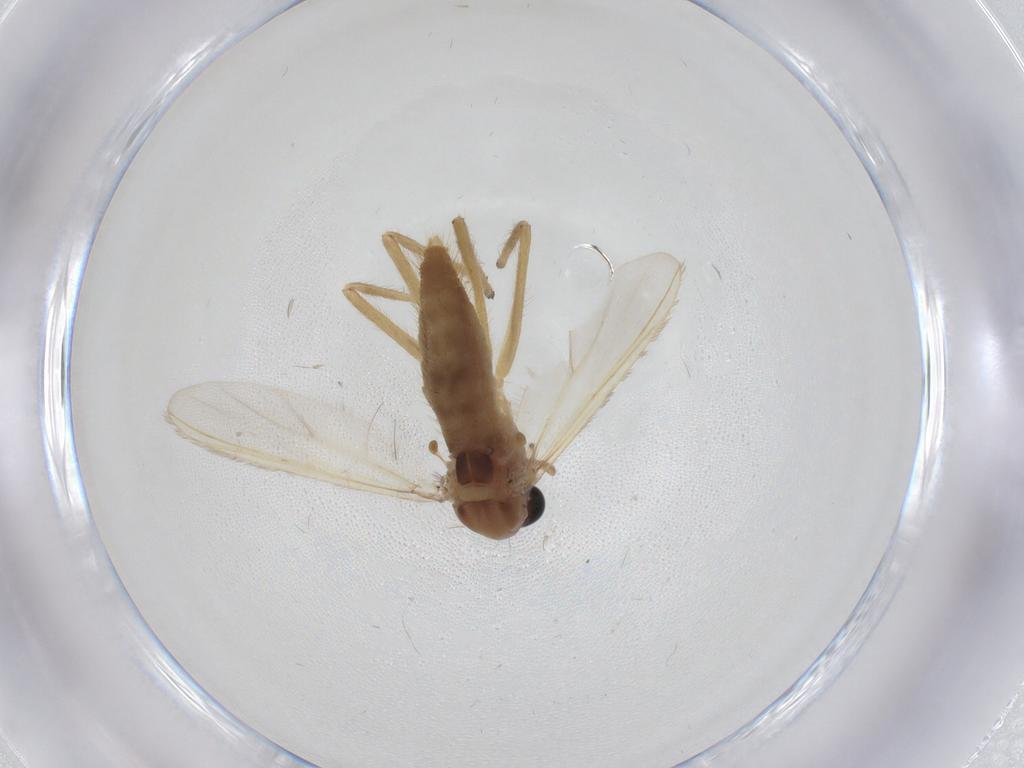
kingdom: Animalia
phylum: Arthropoda
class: Insecta
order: Diptera
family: Chironomidae
